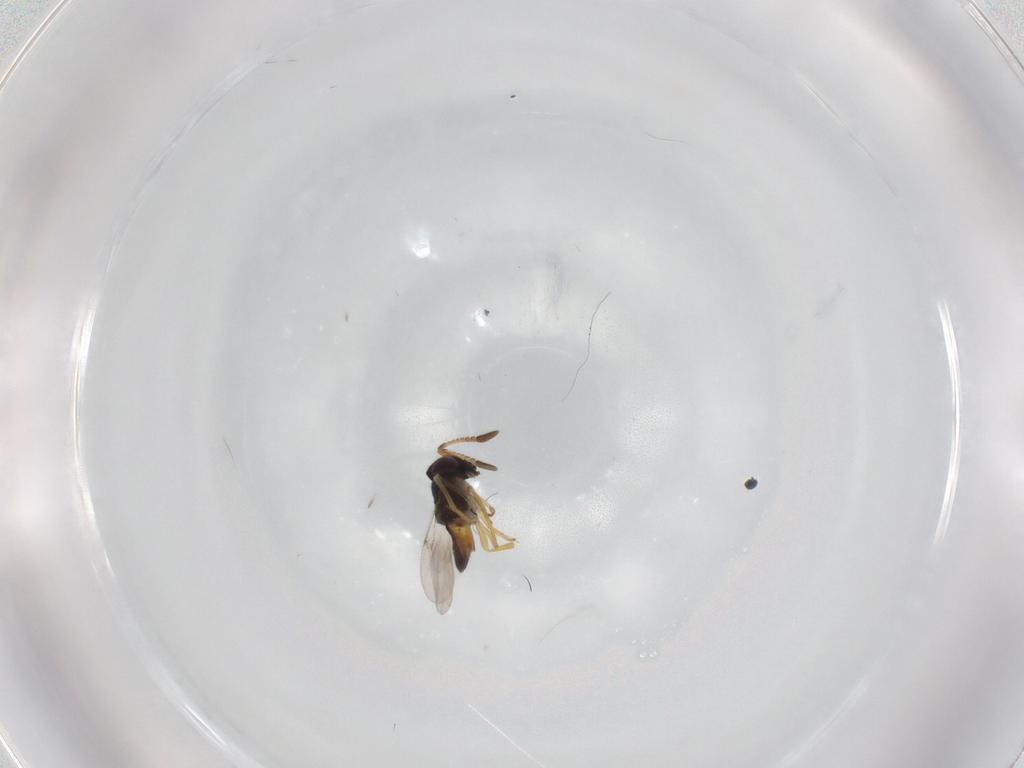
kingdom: Animalia
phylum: Arthropoda
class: Insecta
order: Hymenoptera
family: Encyrtidae
